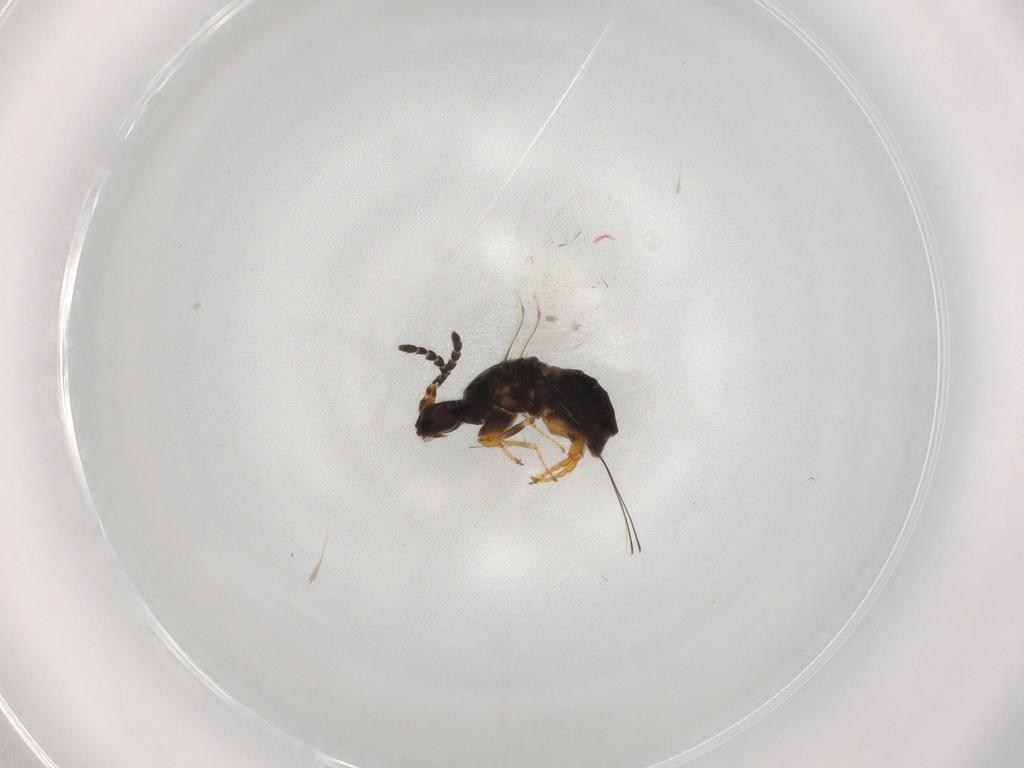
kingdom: Animalia
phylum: Arthropoda
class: Insecta
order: Hymenoptera
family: Agaonidae
